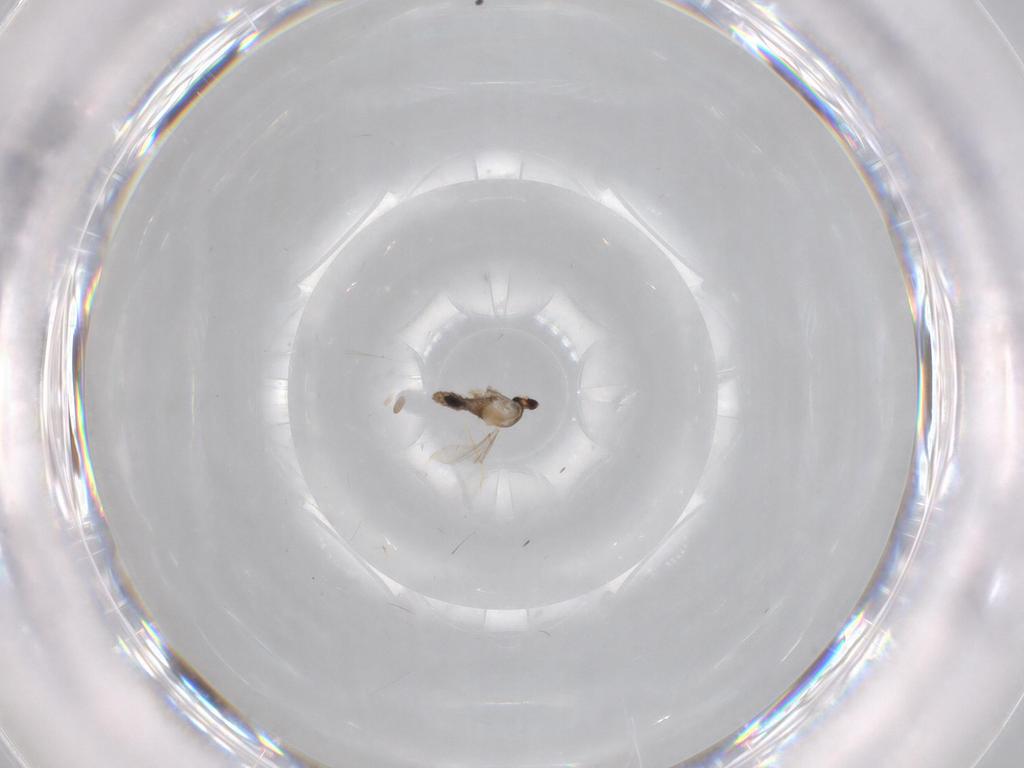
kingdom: Animalia
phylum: Arthropoda
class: Insecta
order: Diptera
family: Cecidomyiidae
